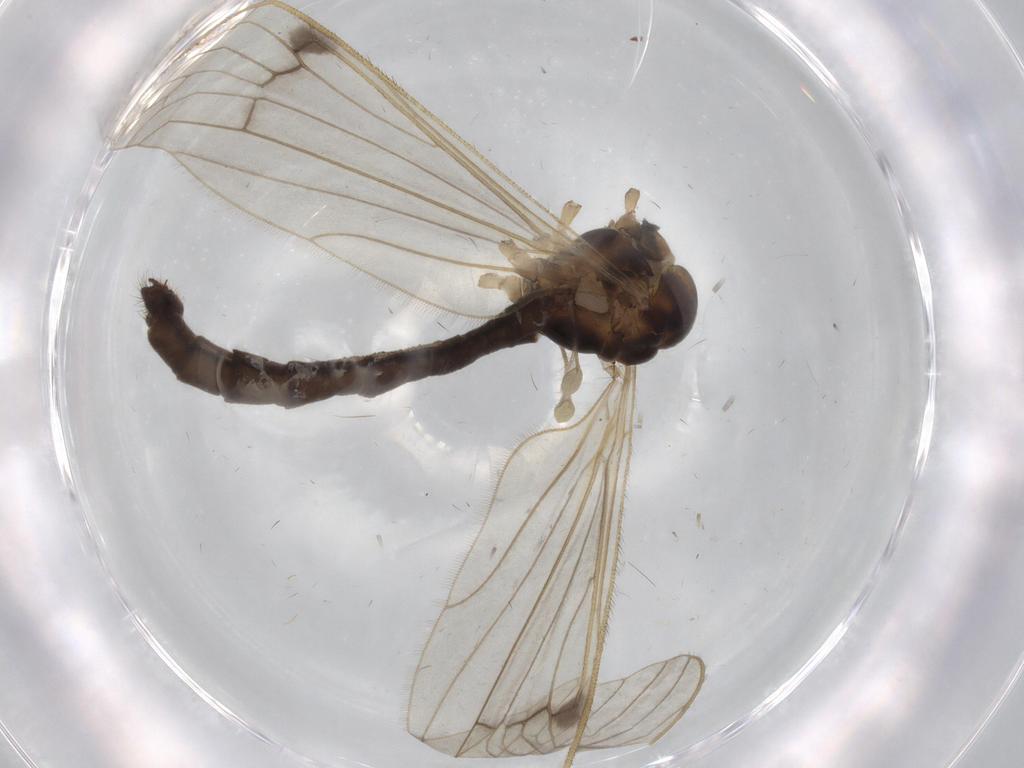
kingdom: Animalia
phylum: Arthropoda
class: Insecta
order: Diptera
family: Limoniidae
